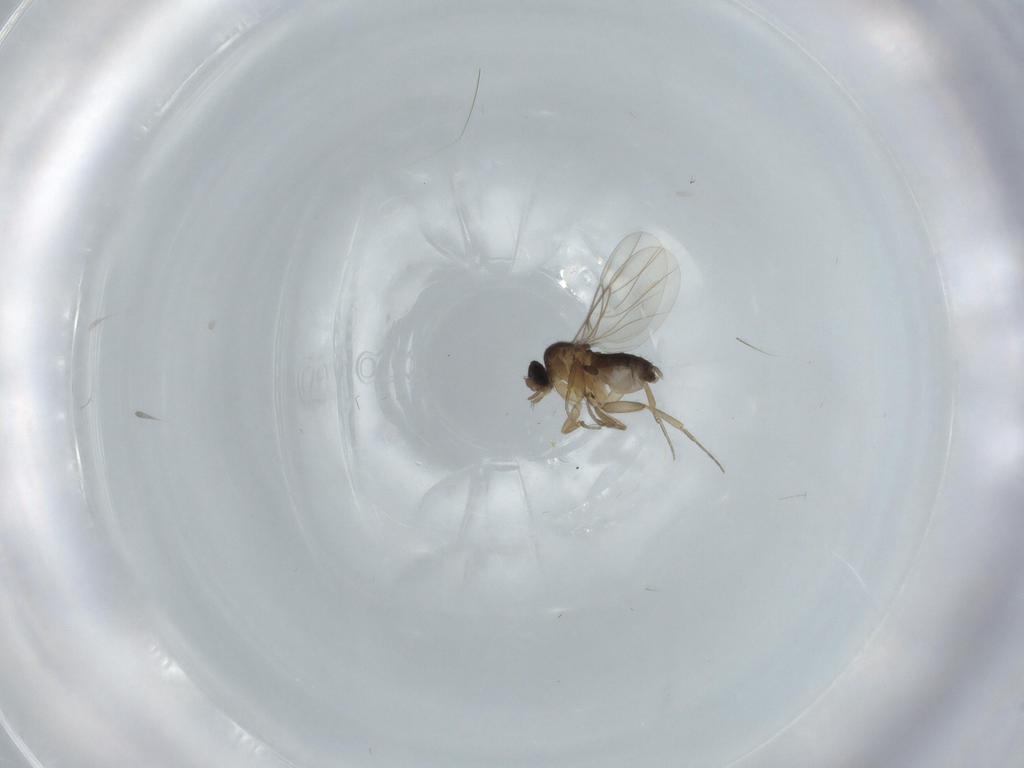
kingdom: Animalia
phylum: Arthropoda
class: Insecta
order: Diptera
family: Phoridae
